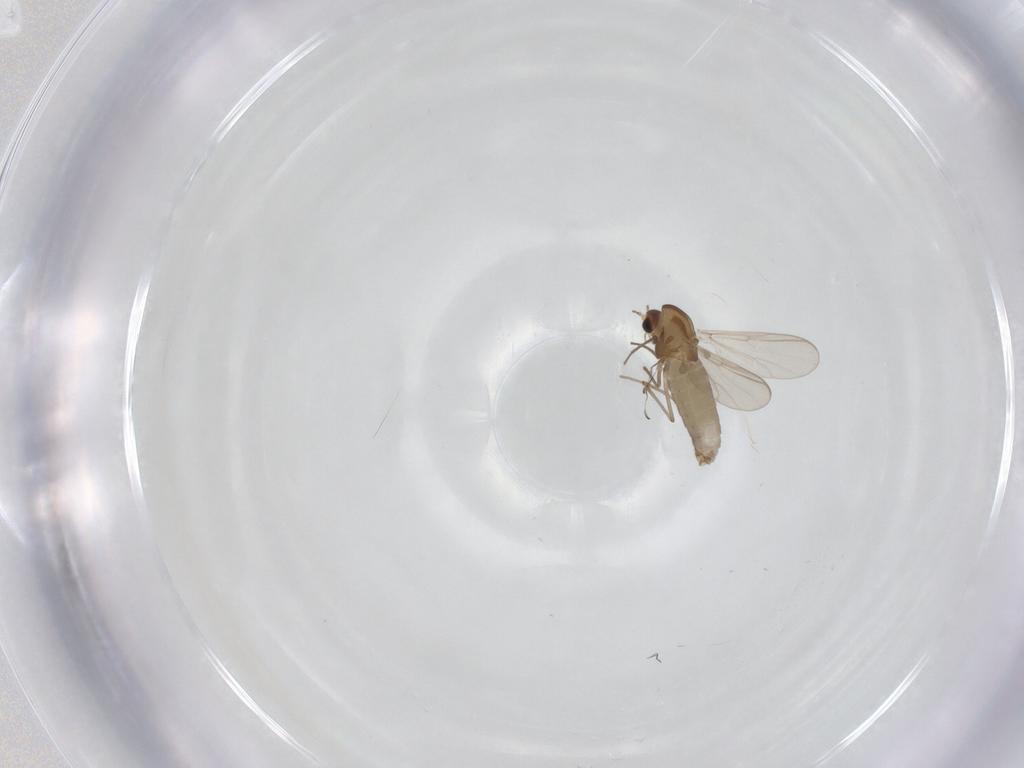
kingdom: Animalia
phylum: Arthropoda
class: Insecta
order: Diptera
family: Chironomidae
